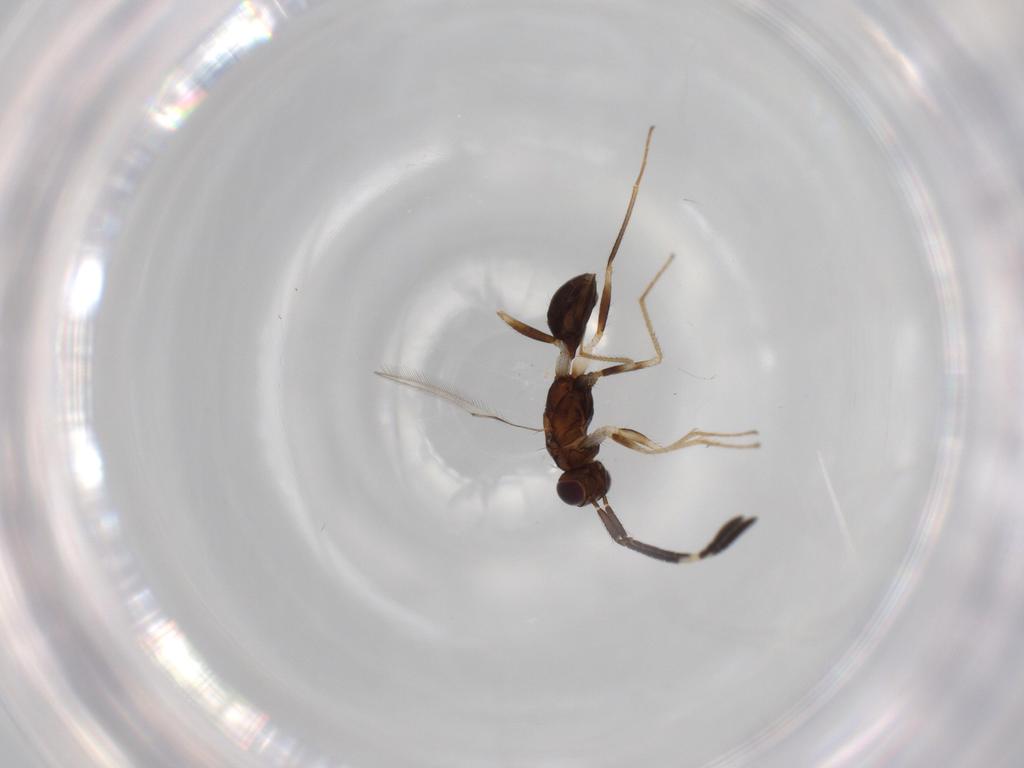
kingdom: Animalia
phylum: Arthropoda
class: Insecta
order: Hymenoptera
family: Mymaridae
